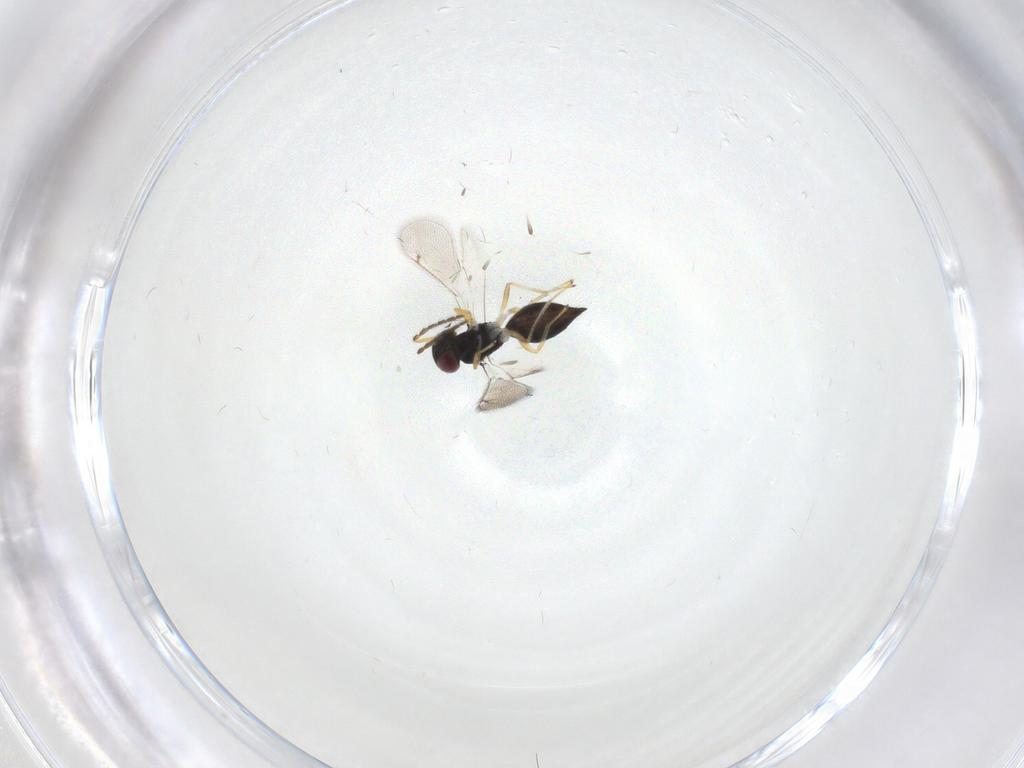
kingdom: Animalia
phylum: Arthropoda
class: Insecta
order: Hymenoptera
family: Eulophidae
